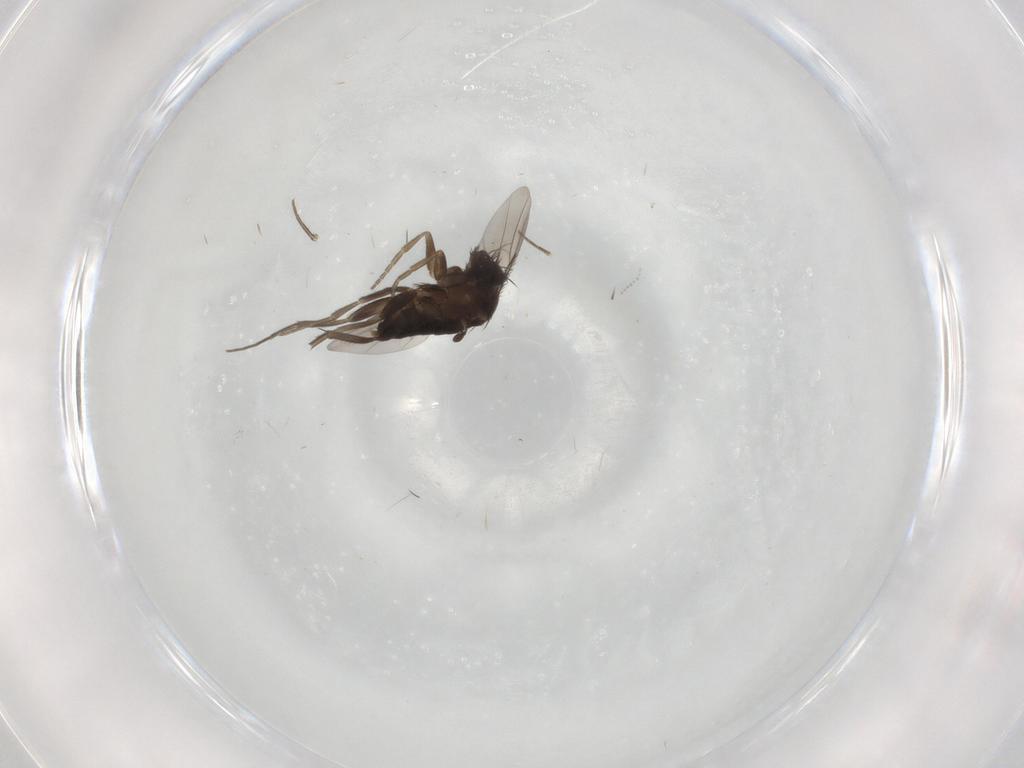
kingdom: Animalia
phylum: Arthropoda
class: Insecta
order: Diptera
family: Phoridae
